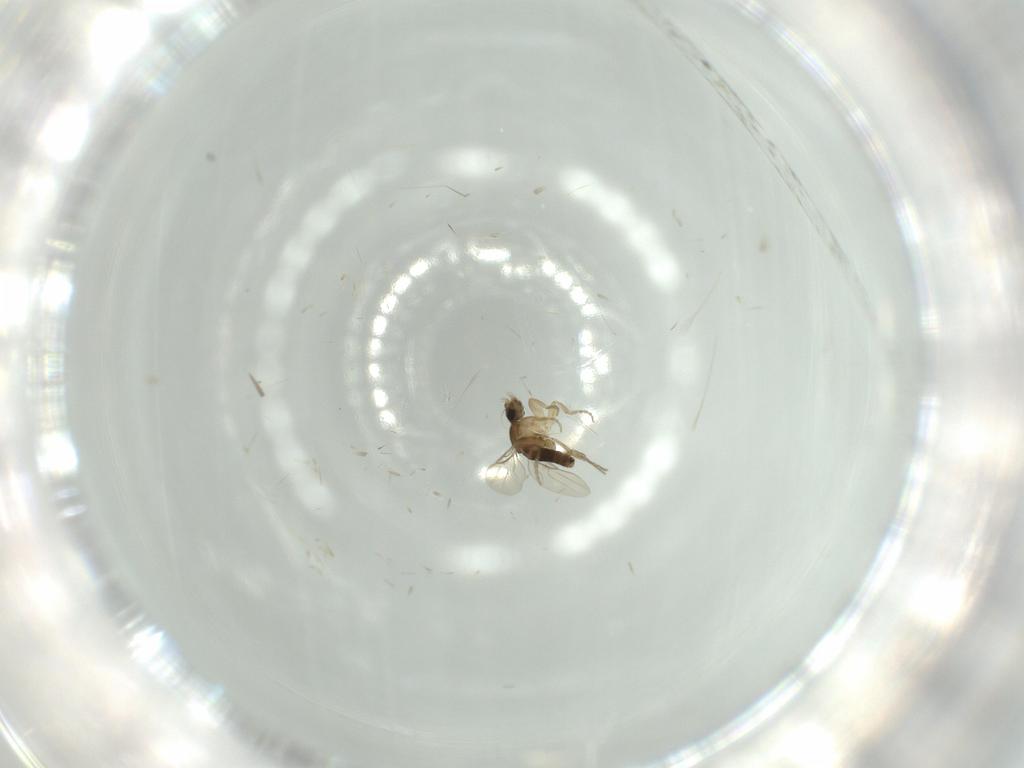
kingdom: Animalia
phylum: Arthropoda
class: Insecta
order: Diptera
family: Phoridae
